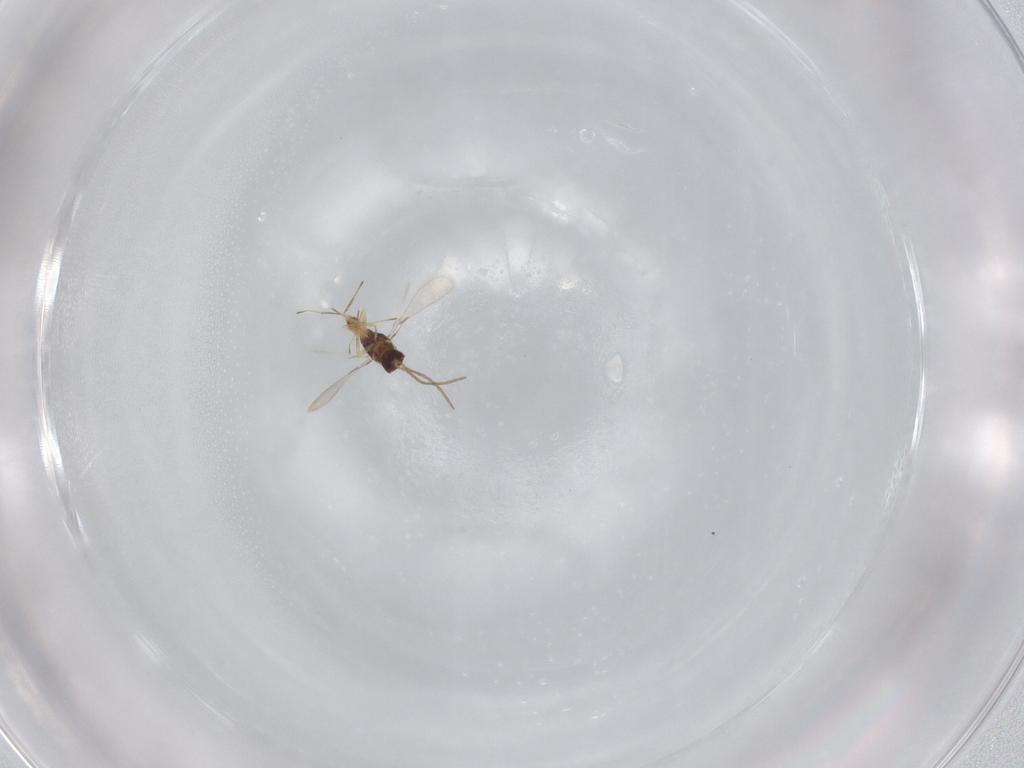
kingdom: Animalia
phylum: Arthropoda
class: Insecta
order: Hymenoptera
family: Mymaridae
